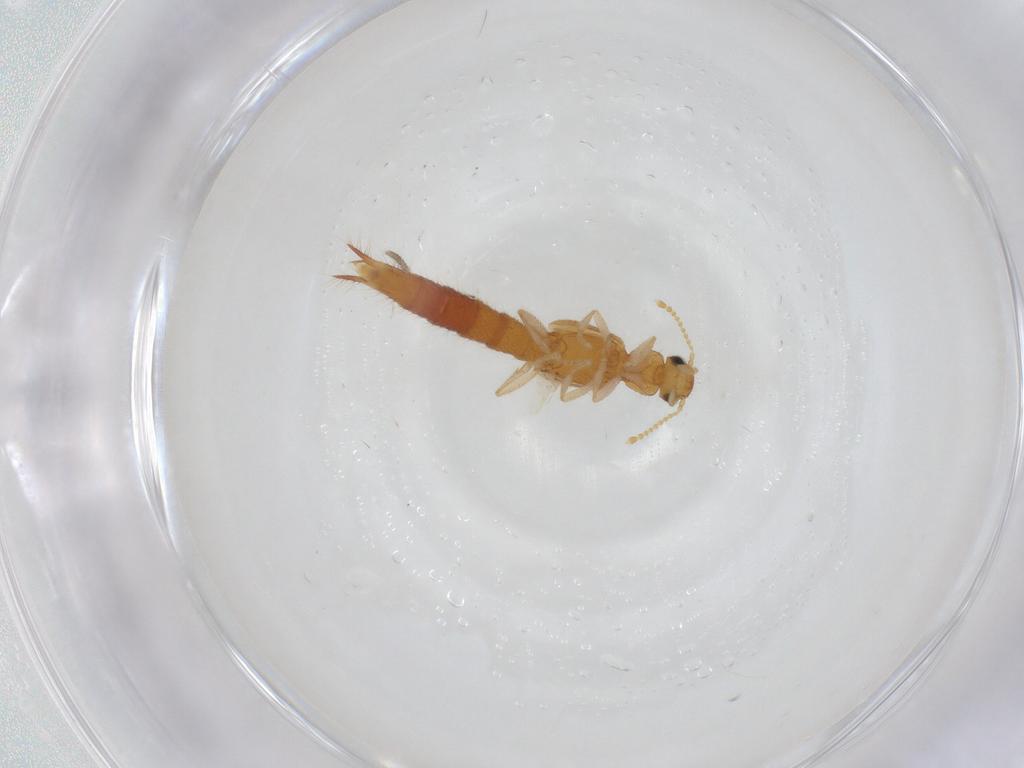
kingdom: Animalia
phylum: Arthropoda
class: Insecta
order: Coleoptera
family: Staphylinidae
